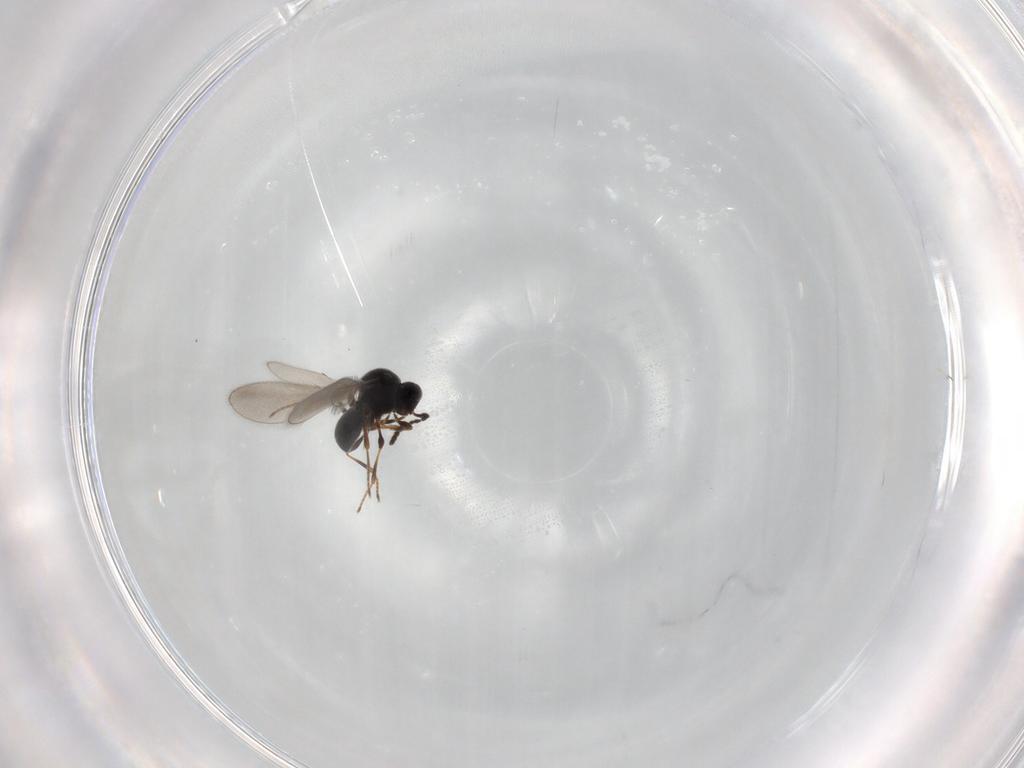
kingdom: Animalia
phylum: Arthropoda
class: Insecta
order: Hymenoptera
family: Platygastridae
